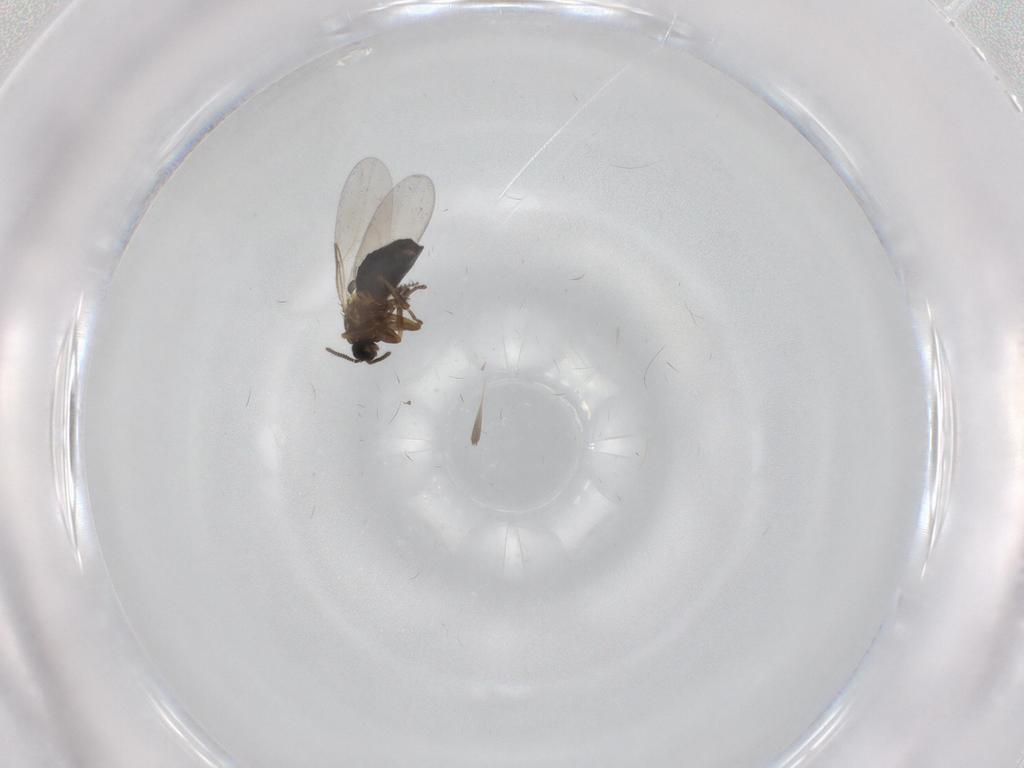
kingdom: Animalia
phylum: Arthropoda
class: Insecta
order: Diptera
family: Scatopsidae
